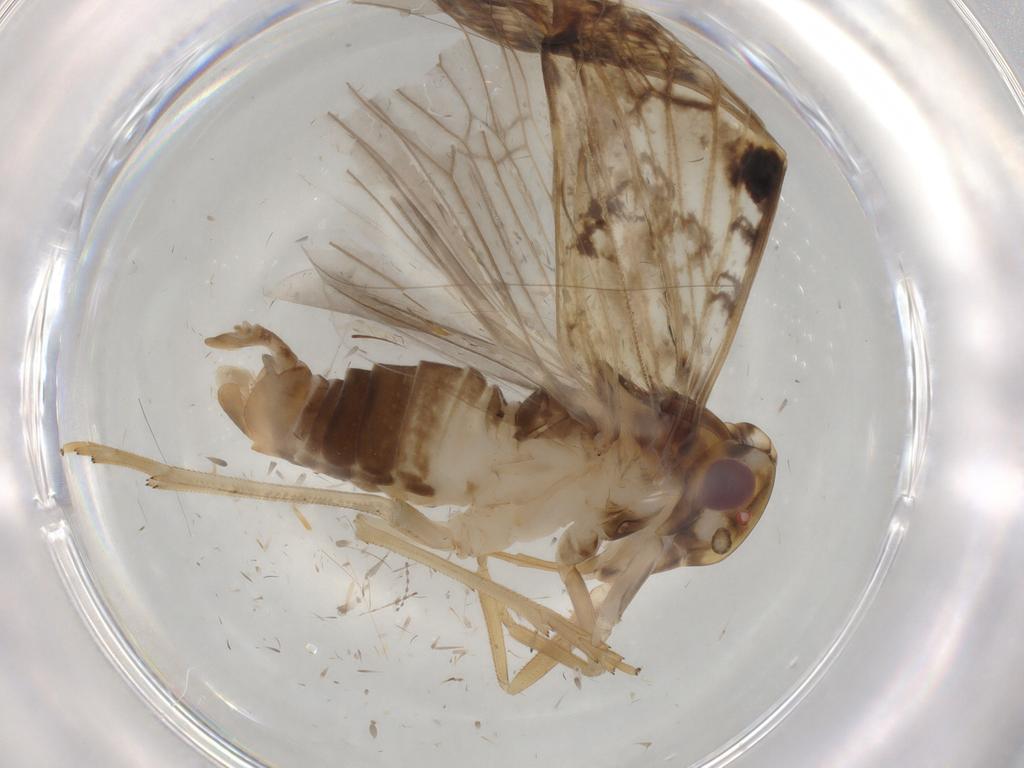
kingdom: Animalia
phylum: Arthropoda
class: Insecta
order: Hemiptera
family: Cixiidae
